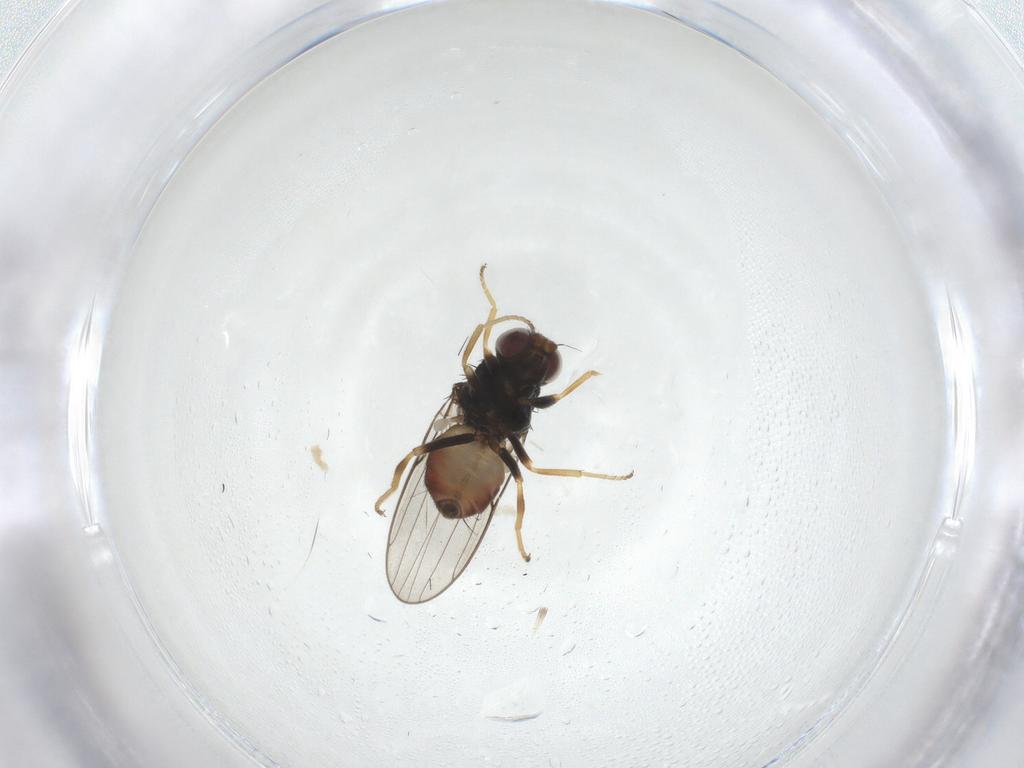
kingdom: Animalia
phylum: Arthropoda
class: Insecta
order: Diptera
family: Chloropidae
